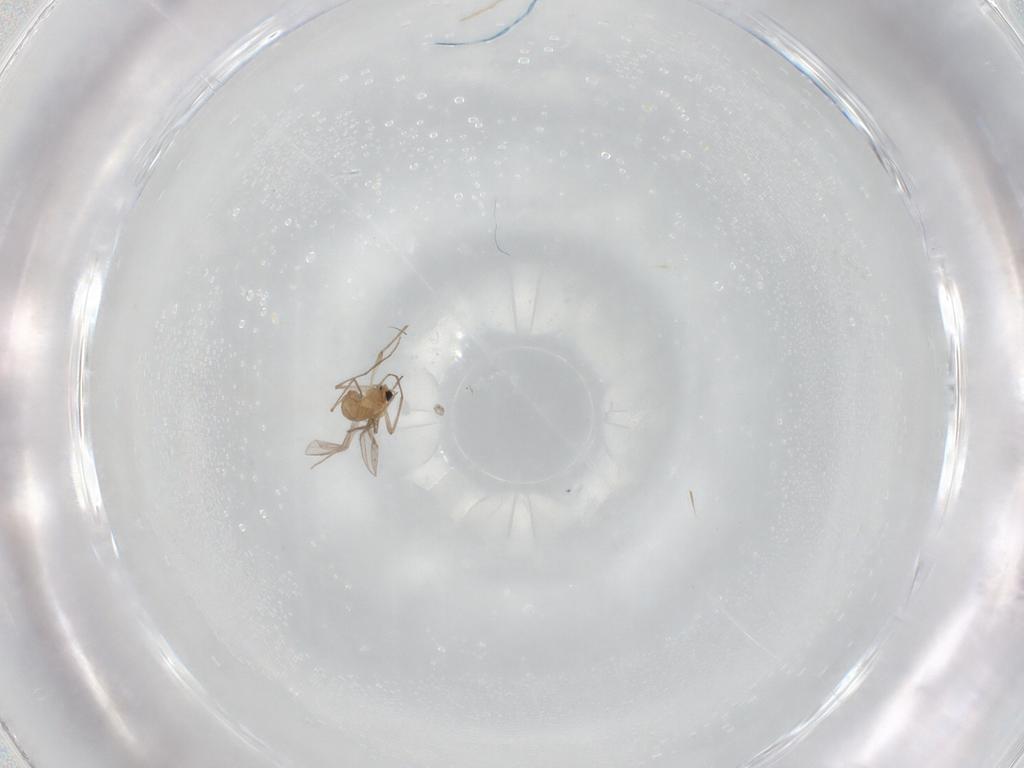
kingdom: Animalia
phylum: Arthropoda
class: Insecta
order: Diptera
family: Chironomidae
